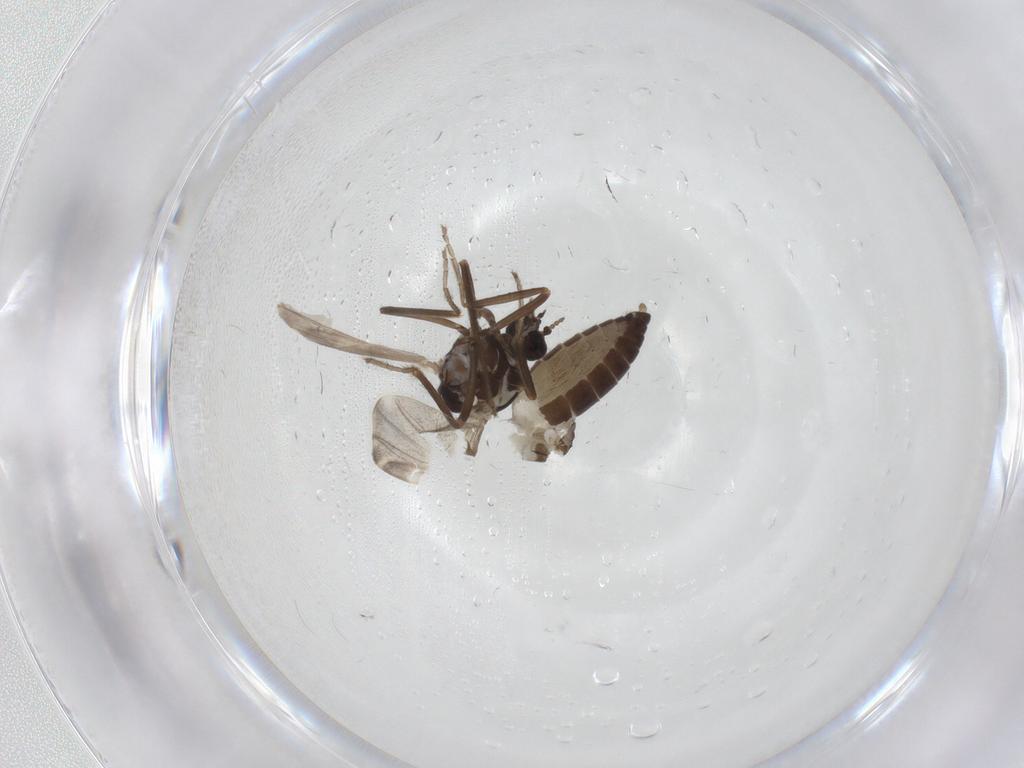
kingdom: Animalia
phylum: Arthropoda
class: Insecta
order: Diptera
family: Ceratopogonidae
